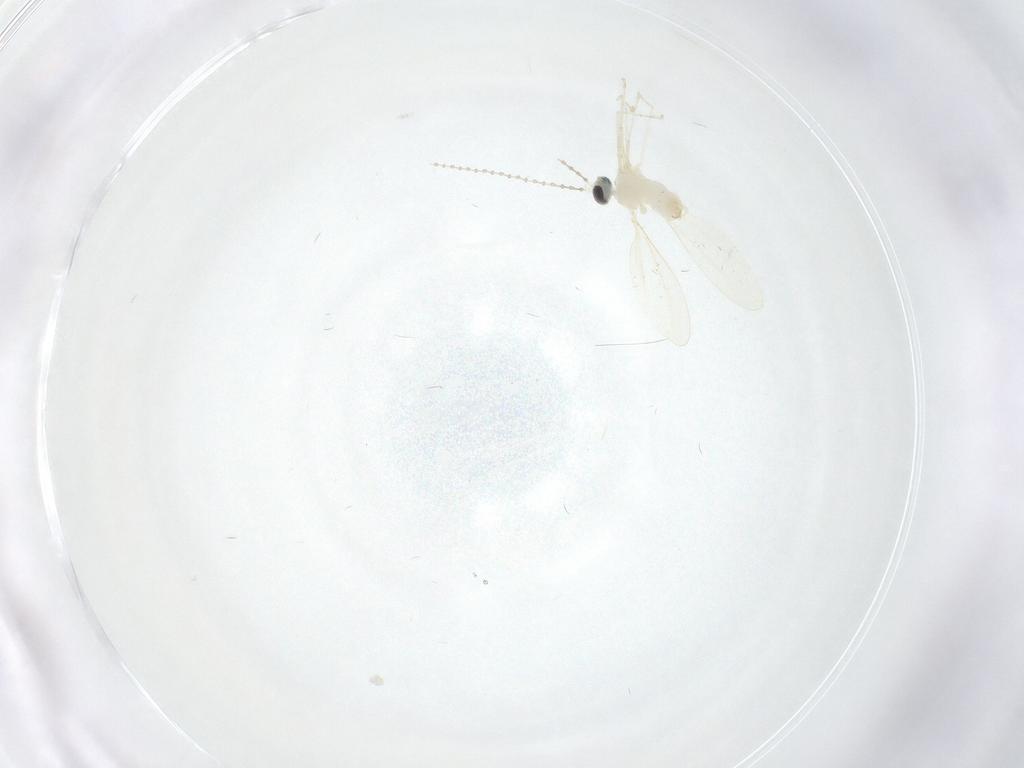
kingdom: Animalia
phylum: Arthropoda
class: Insecta
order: Diptera
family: Cecidomyiidae
